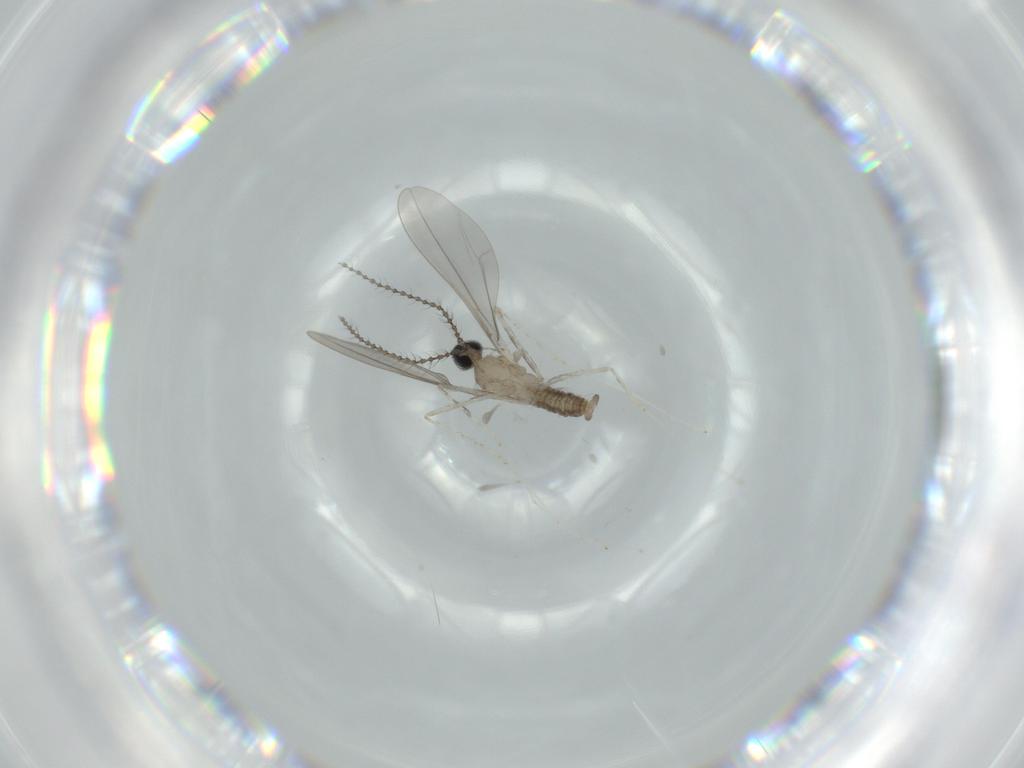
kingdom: Animalia
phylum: Arthropoda
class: Insecta
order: Diptera
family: Cecidomyiidae
